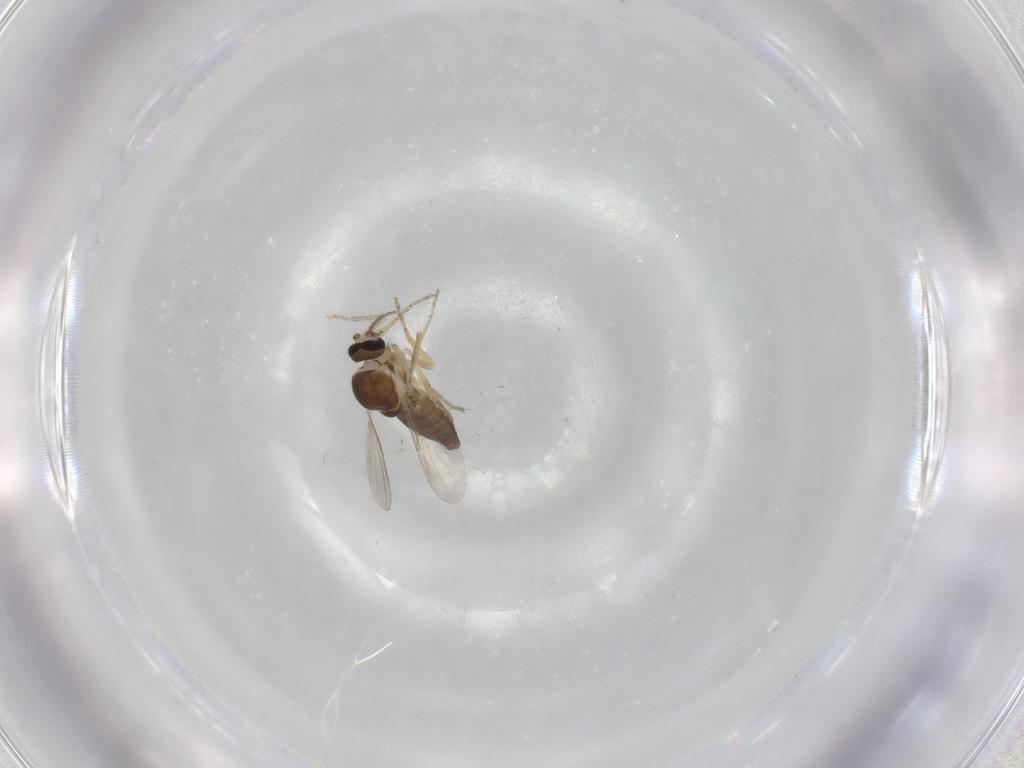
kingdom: Animalia
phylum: Arthropoda
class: Insecta
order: Diptera
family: Ceratopogonidae
